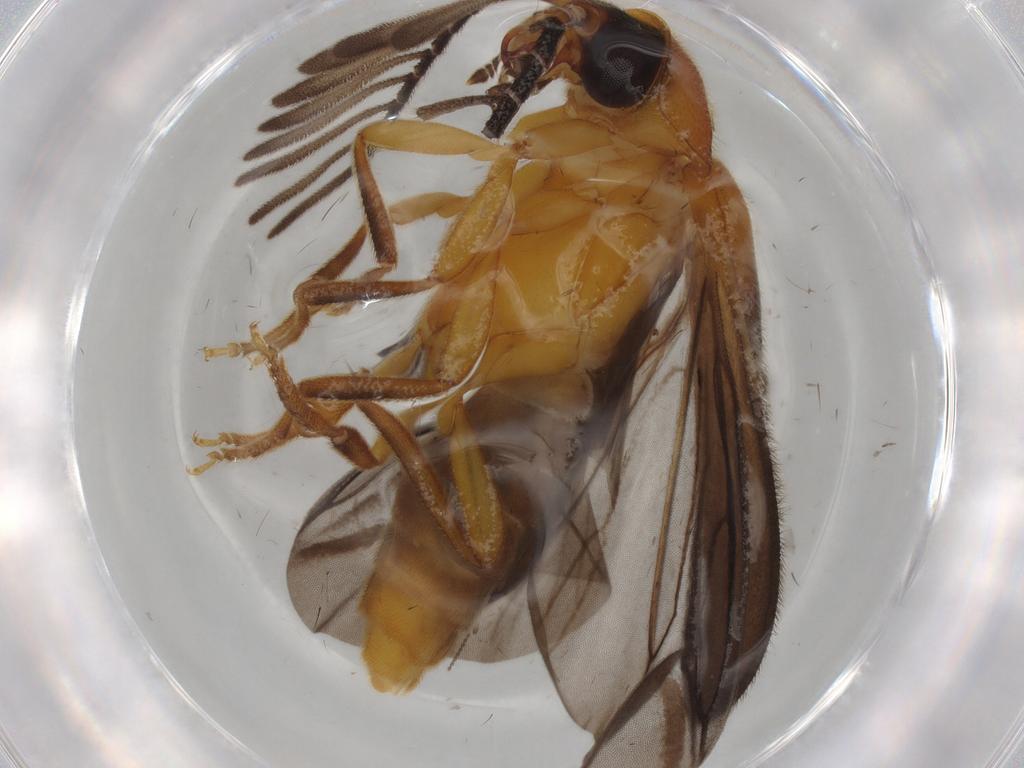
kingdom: Animalia
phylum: Arthropoda
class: Insecta
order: Coleoptera
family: Lampyridae
